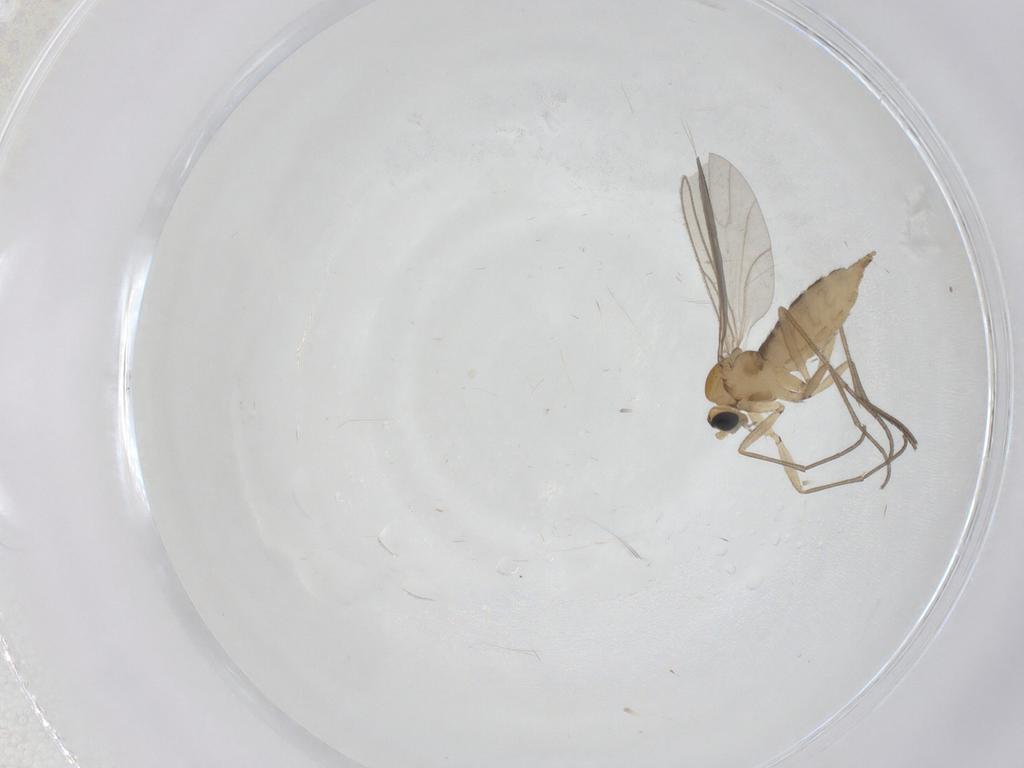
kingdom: Animalia
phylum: Arthropoda
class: Insecta
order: Diptera
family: Sciaridae
